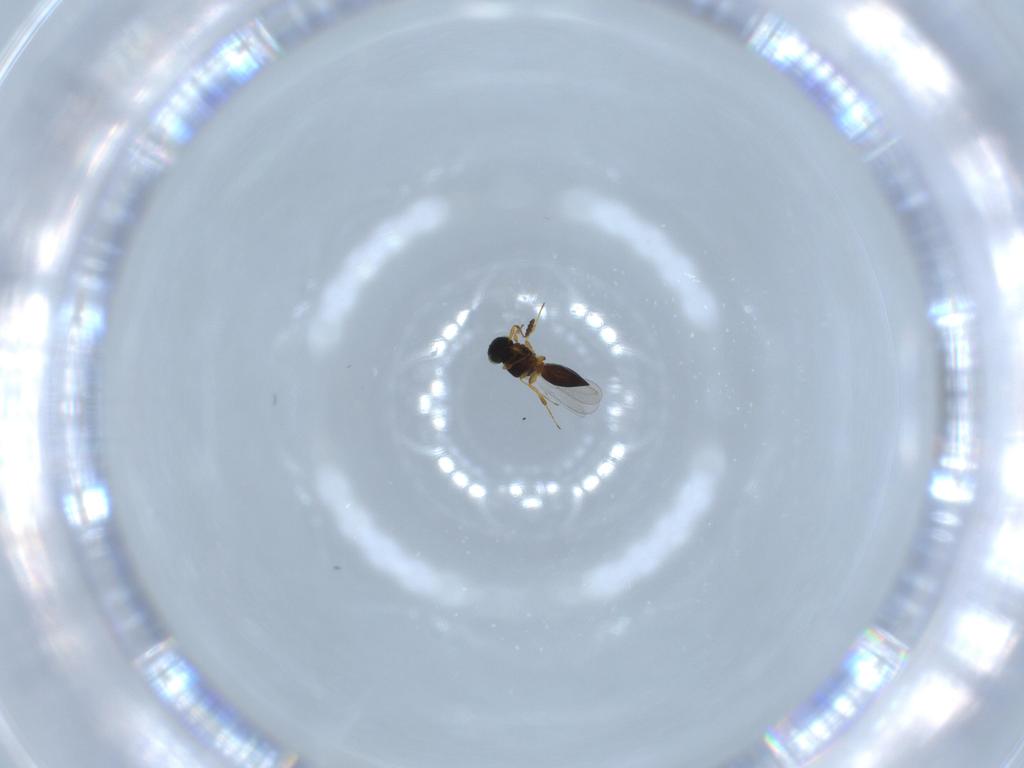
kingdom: Animalia
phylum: Arthropoda
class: Insecta
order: Hymenoptera
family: Platygastridae
